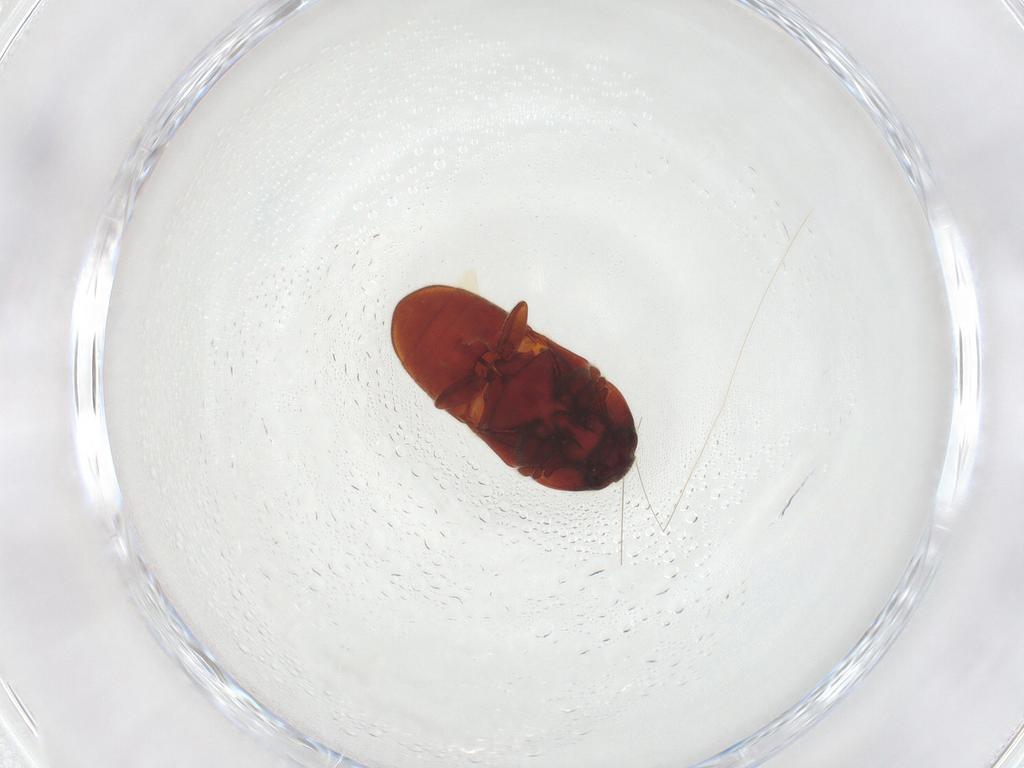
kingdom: Animalia
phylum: Arthropoda
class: Insecta
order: Coleoptera
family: Throscidae
